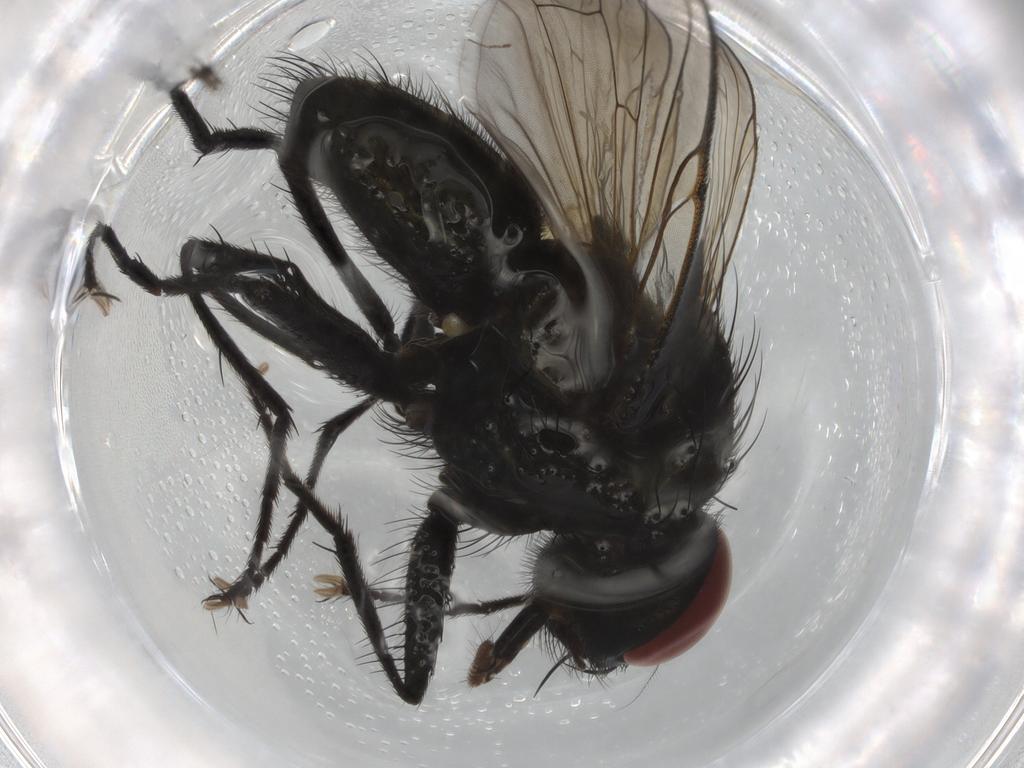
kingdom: Animalia
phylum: Arthropoda
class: Insecta
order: Diptera
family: Muscidae
